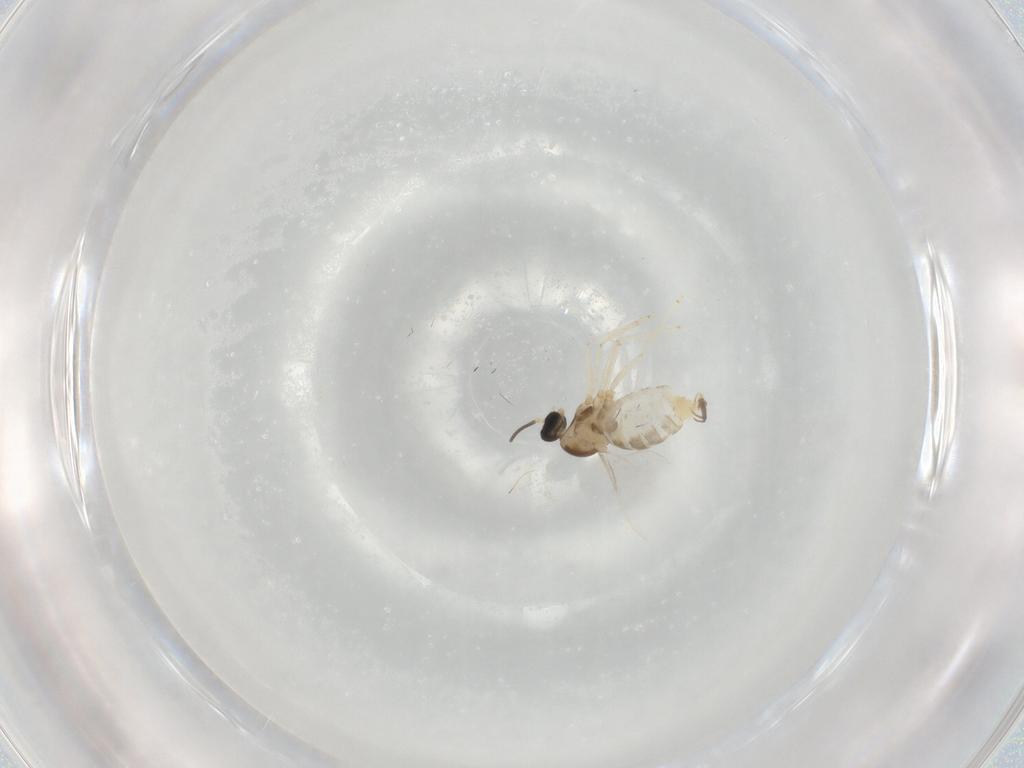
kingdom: Animalia
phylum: Arthropoda
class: Insecta
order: Diptera
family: Cecidomyiidae
